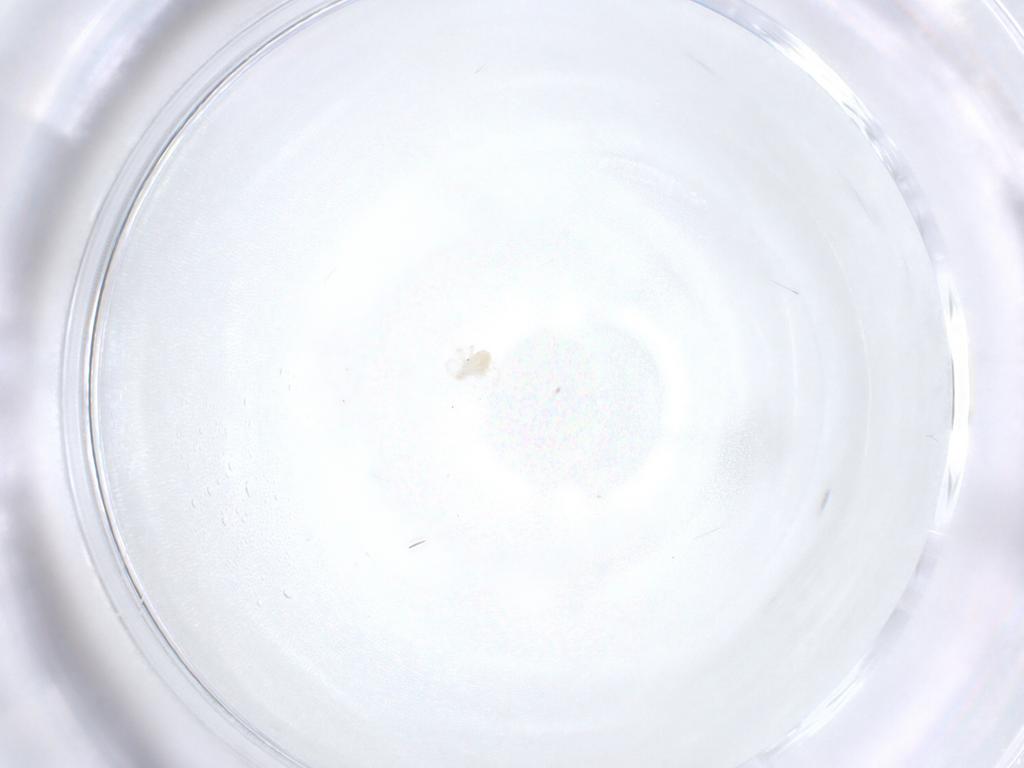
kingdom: Animalia
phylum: Arthropoda
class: Arachnida
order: Trombidiformes
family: Anystidae
